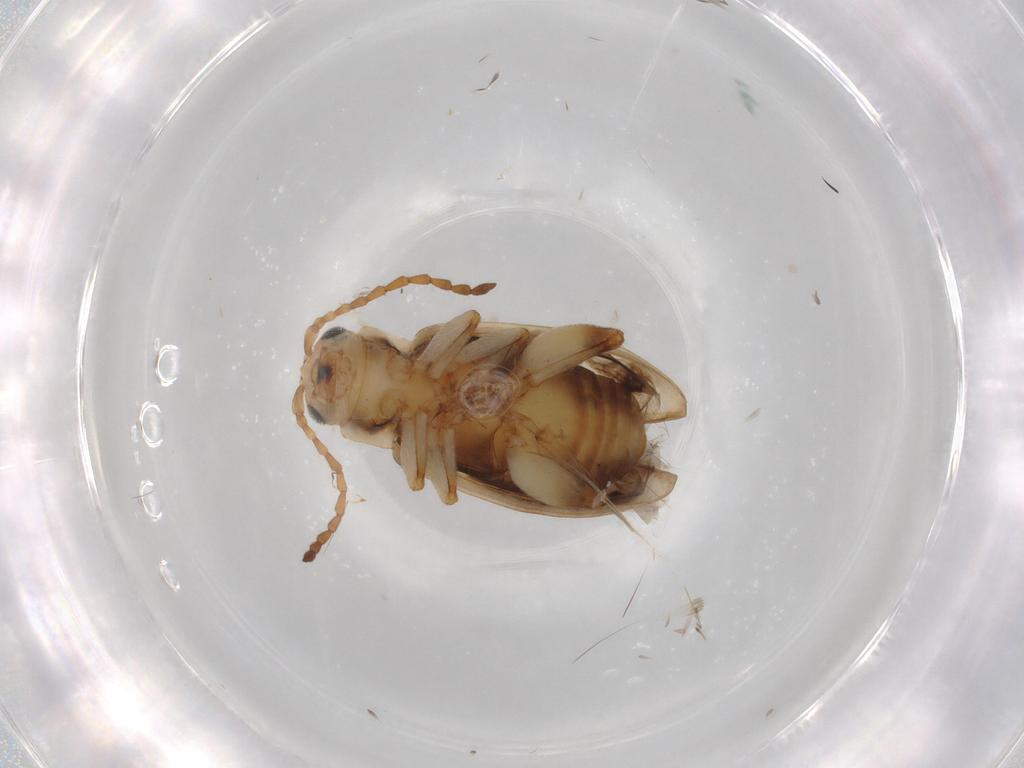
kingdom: Animalia
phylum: Arthropoda
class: Insecta
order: Coleoptera
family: Chrysomelidae
